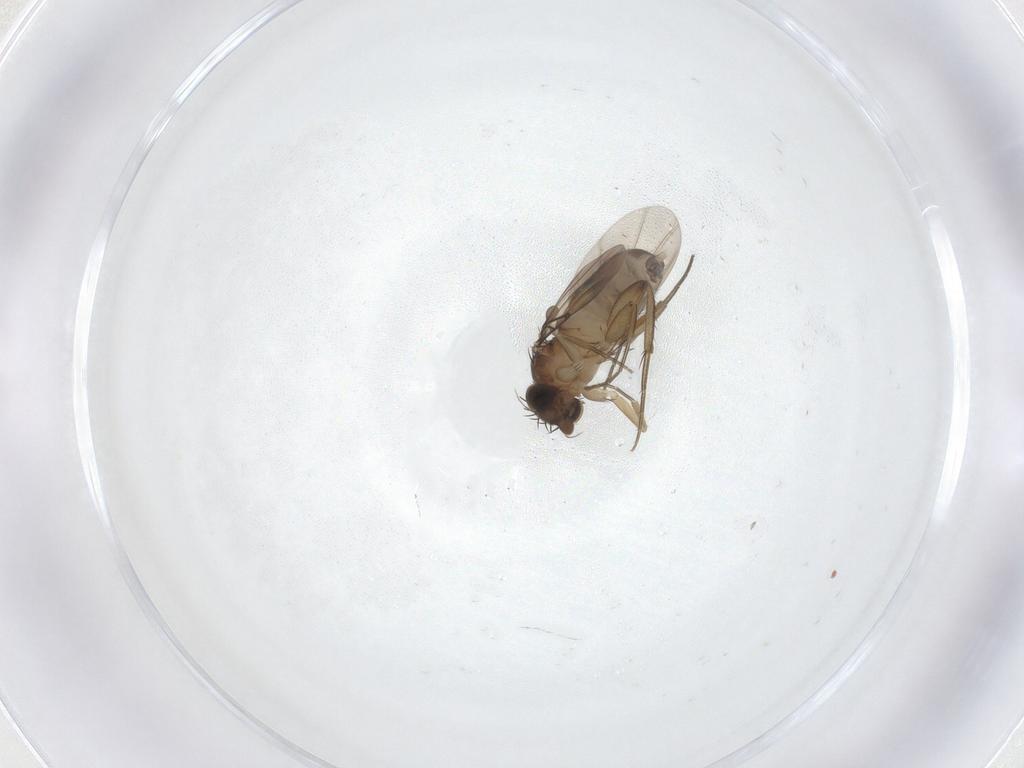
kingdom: Animalia
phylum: Arthropoda
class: Insecta
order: Diptera
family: Phoridae
